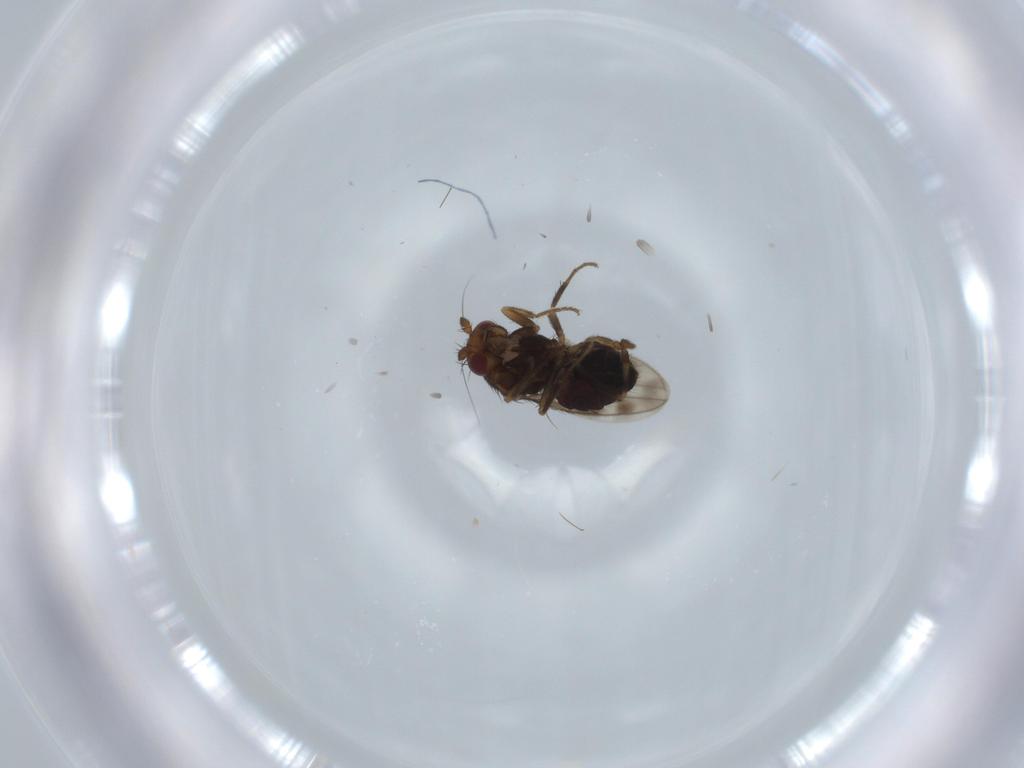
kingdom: Animalia
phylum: Arthropoda
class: Insecta
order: Diptera
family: Sphaeroceridae
